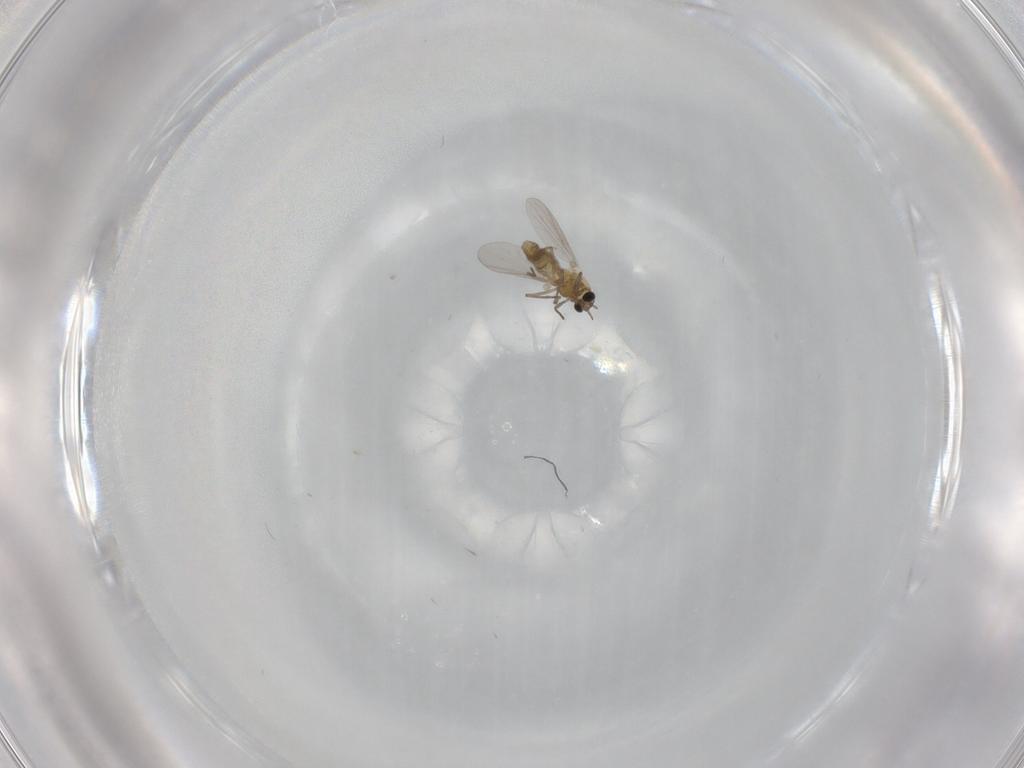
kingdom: Animalia
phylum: Arthropoda
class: Insecta
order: Diptera
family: Chironomidae
